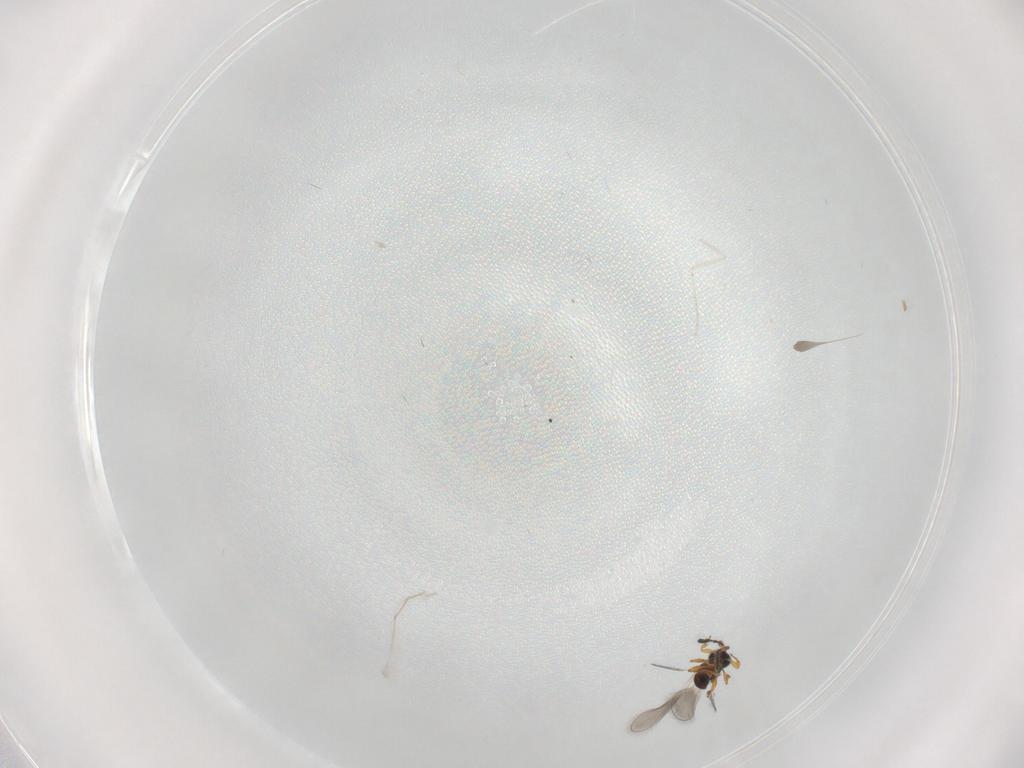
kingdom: Animalia
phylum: Arthropoda
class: Insecta
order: Hymenoptera
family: Platygastridae
